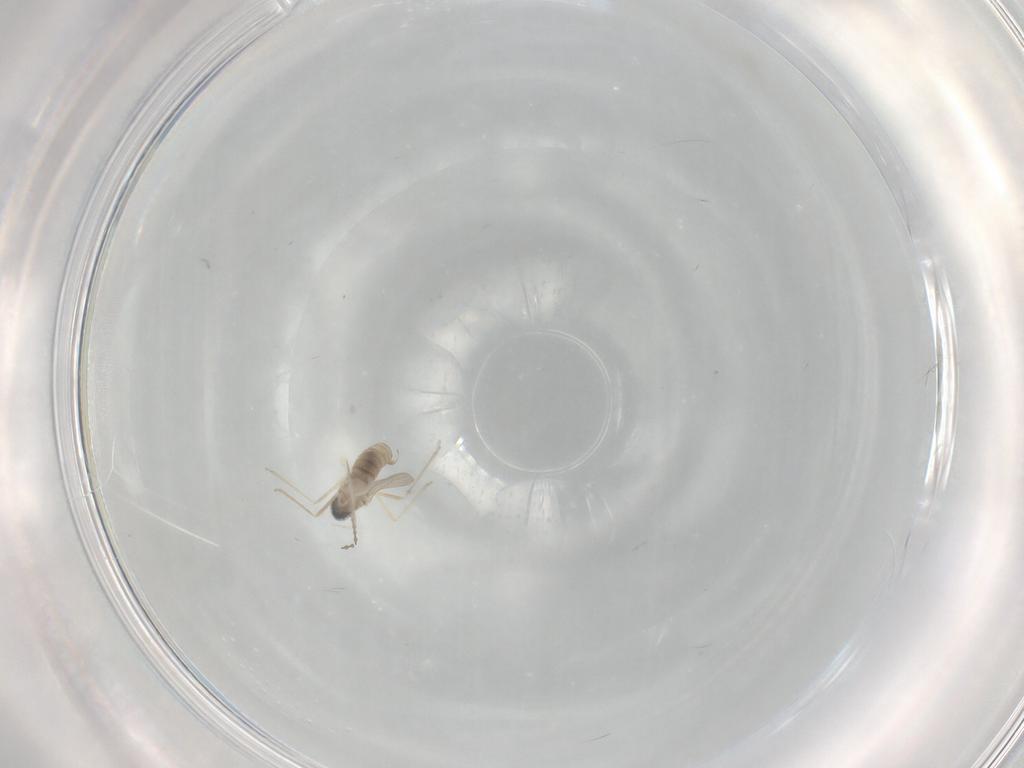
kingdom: Animalia
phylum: Arthropoda
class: Insecta
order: Diptera
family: Cecidomyiidae
